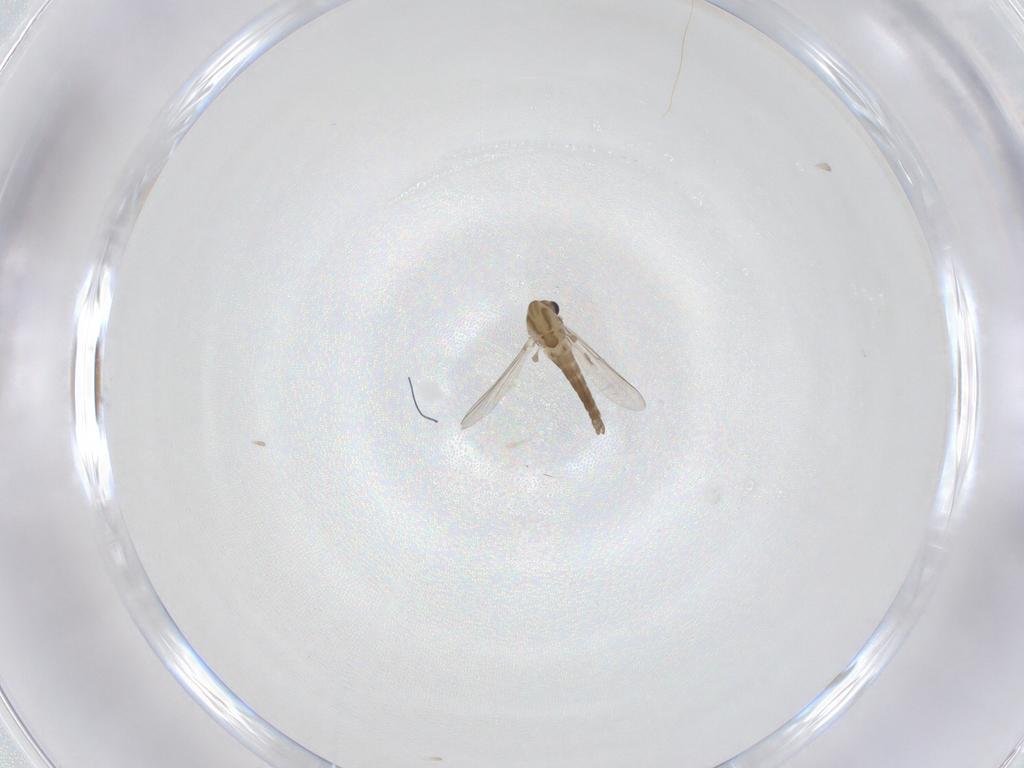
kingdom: Animalia
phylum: Arthropoda
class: Insecta
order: Diptera
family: Chironomidae
